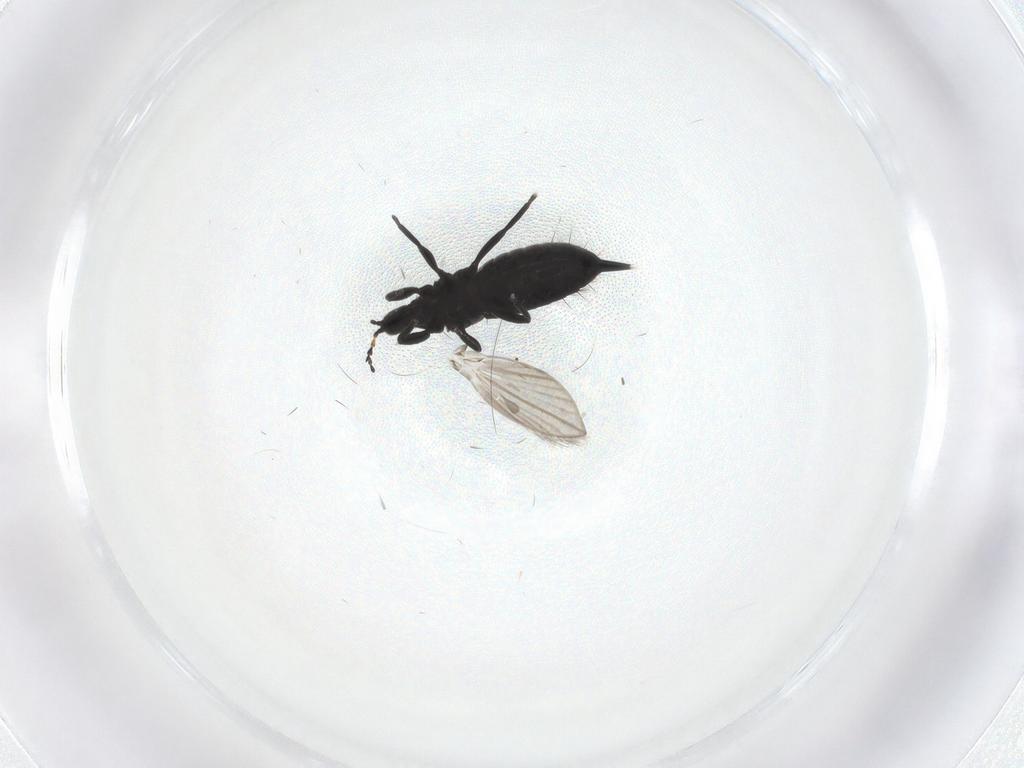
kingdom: Animalia
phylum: Arthropoda
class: Insecta
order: Thysanoptera
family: Phlaeothripidae
